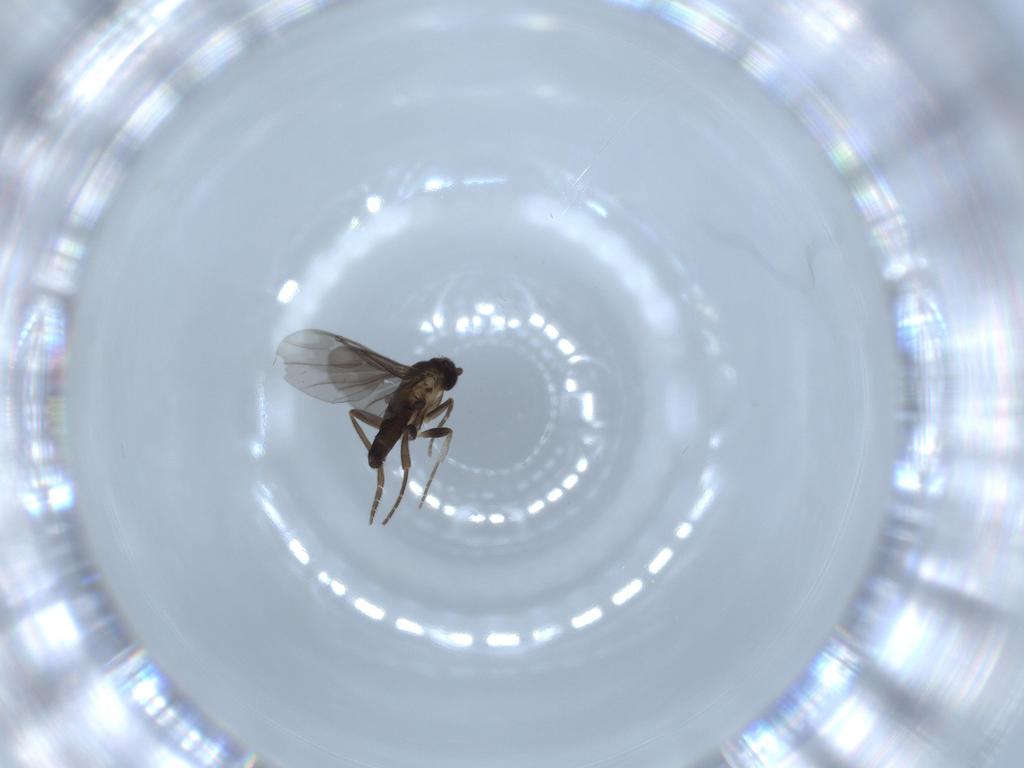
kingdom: Animalia
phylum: Arthropoda
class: Insecta
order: Diptera
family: Phoridae
